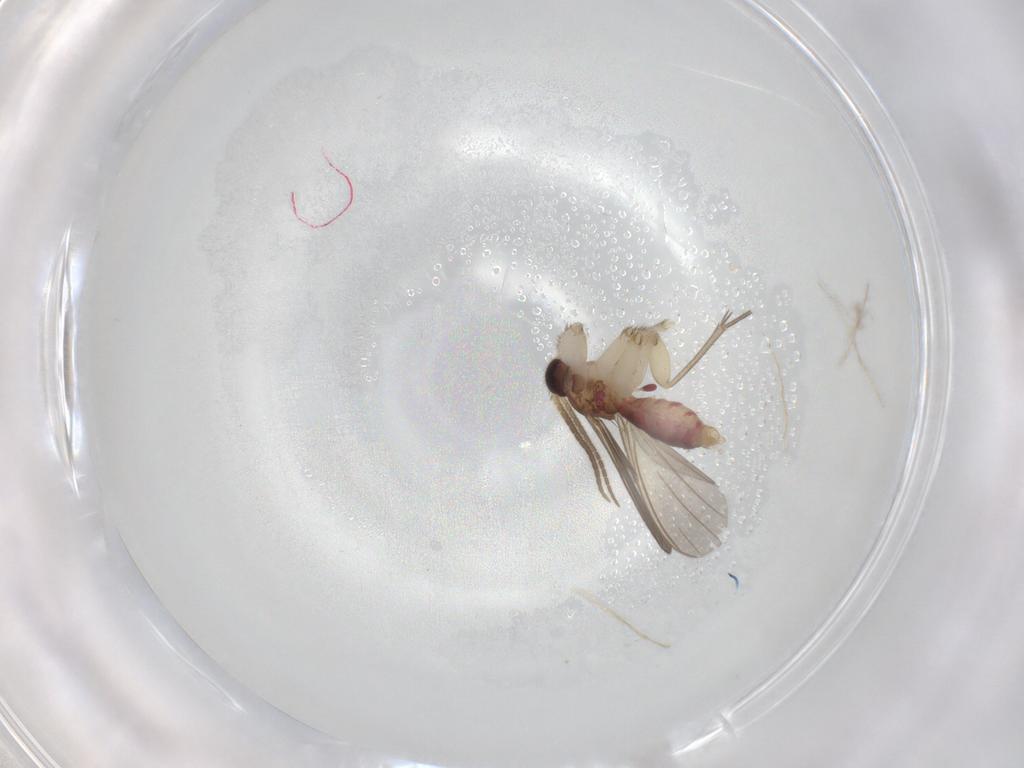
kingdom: Animalia
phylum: Arthropoda
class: Insecta
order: Diptera
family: Mycetophilidae
